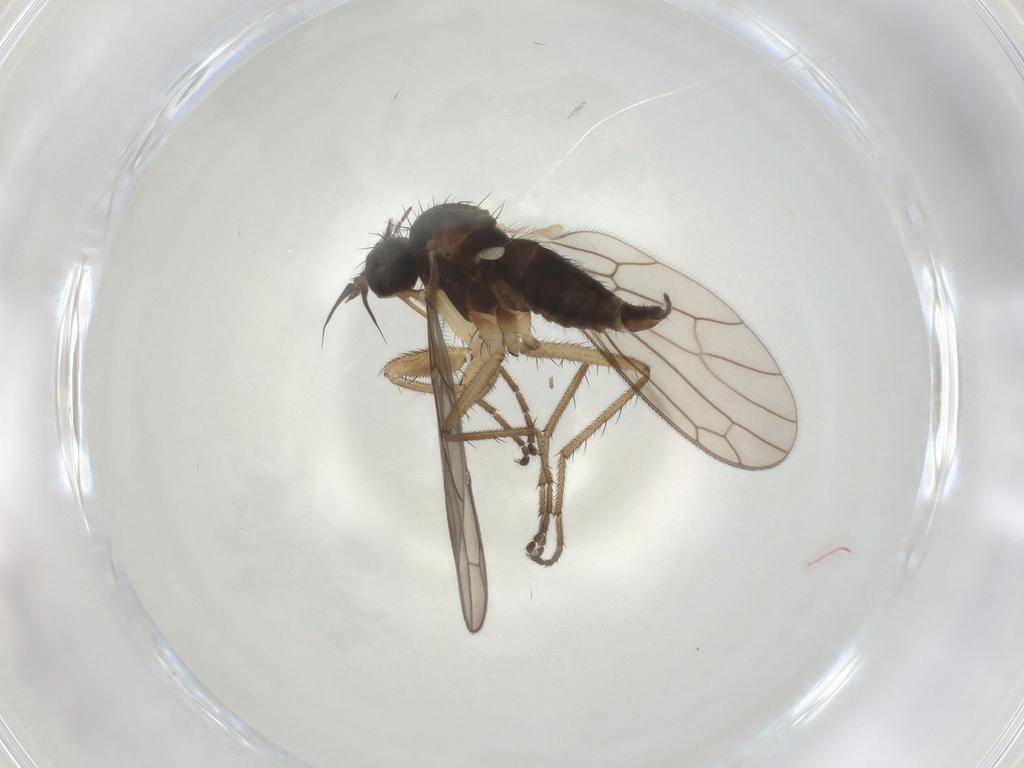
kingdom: Animalia
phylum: Arthropoda
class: Insecta
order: Diptera
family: Chloropidae
